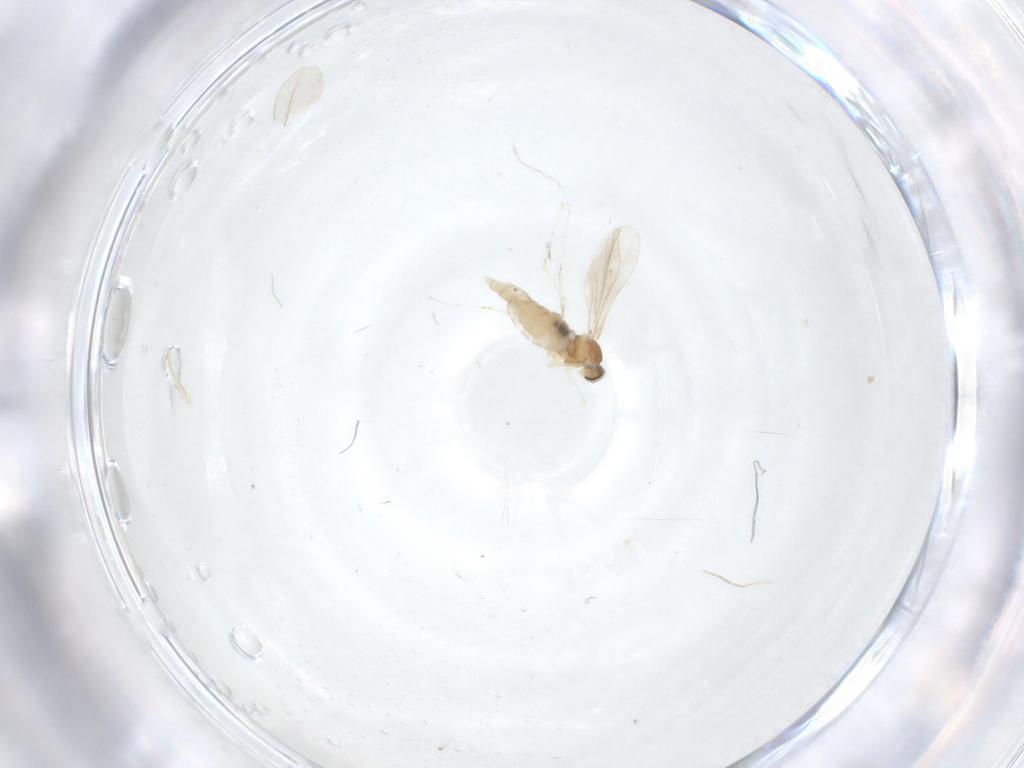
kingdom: Animalia
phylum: Arthropoda
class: Insecta
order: Diptera
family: Cecidomyiidae
